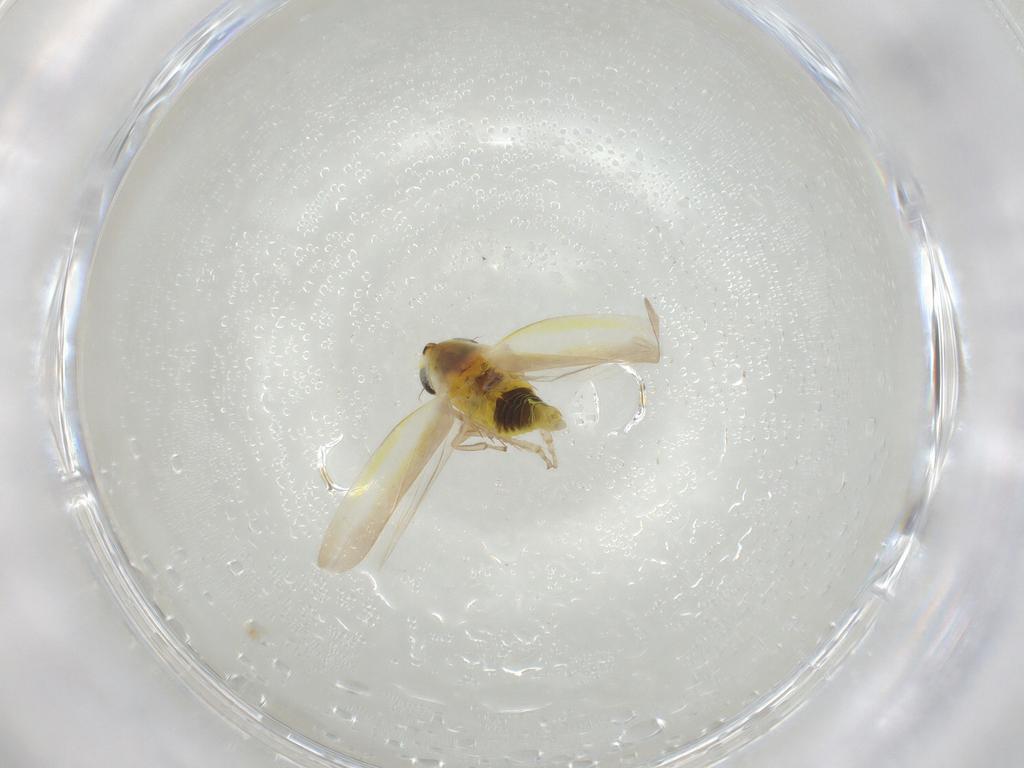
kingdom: Animalia
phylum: Arthropoda
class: Insecta
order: Hemiptera
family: Cicadellidae
